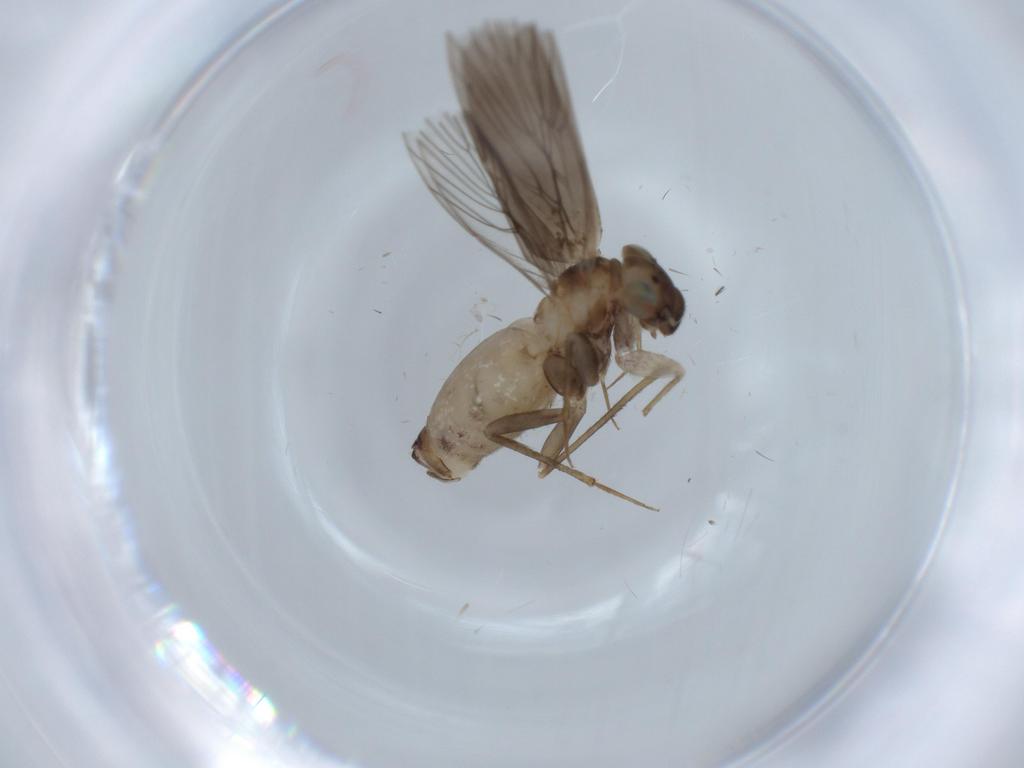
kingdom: Animalia
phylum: Arthropoda
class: Insecta
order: Psocodea
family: Lepidopsocidae
